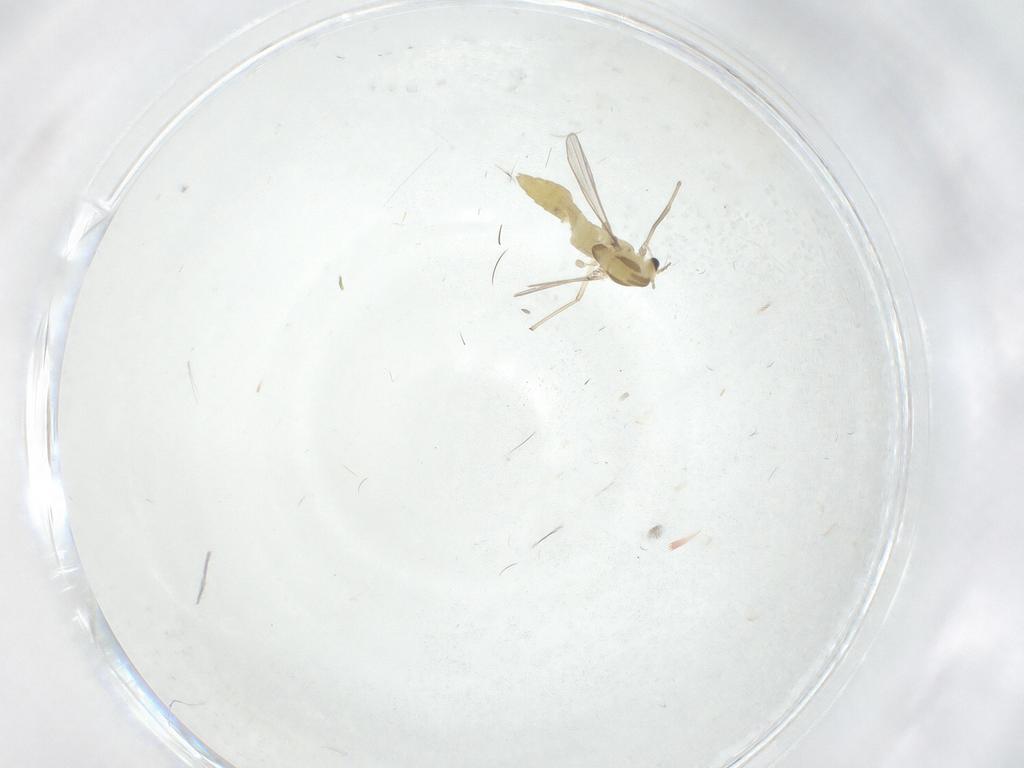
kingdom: Animalia
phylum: Arthropoda
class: Insecta
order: Diptera
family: Chironomidae
